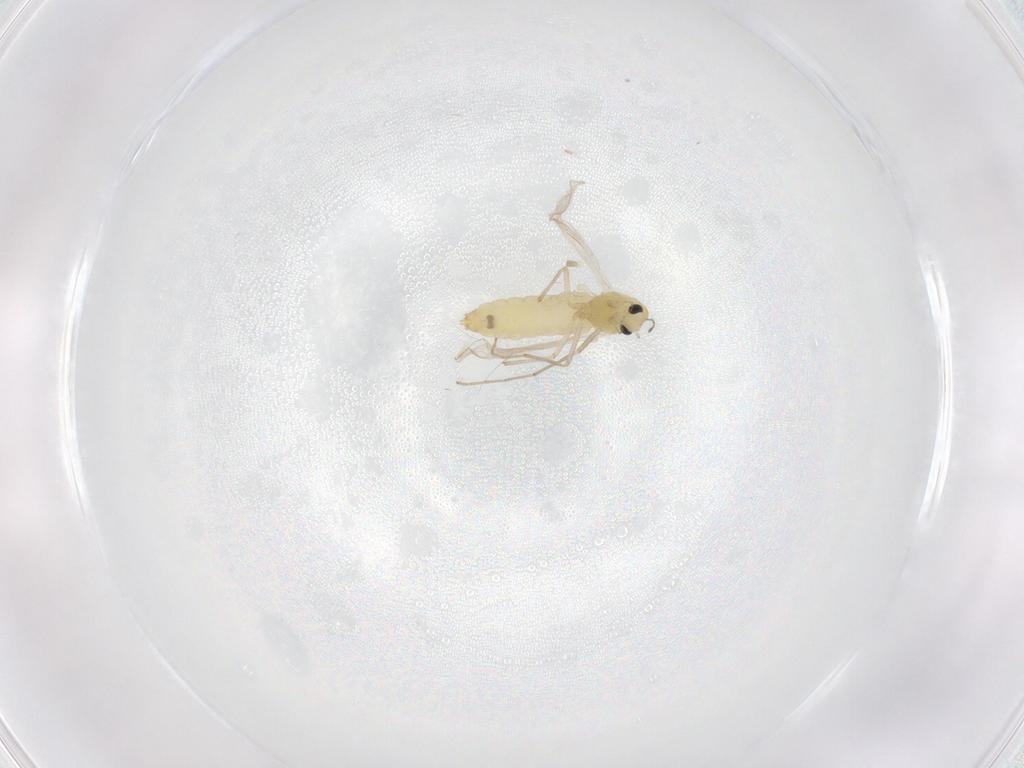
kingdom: Animalia
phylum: Arthropoda
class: Insecta
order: Diptera
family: Chironomidae
